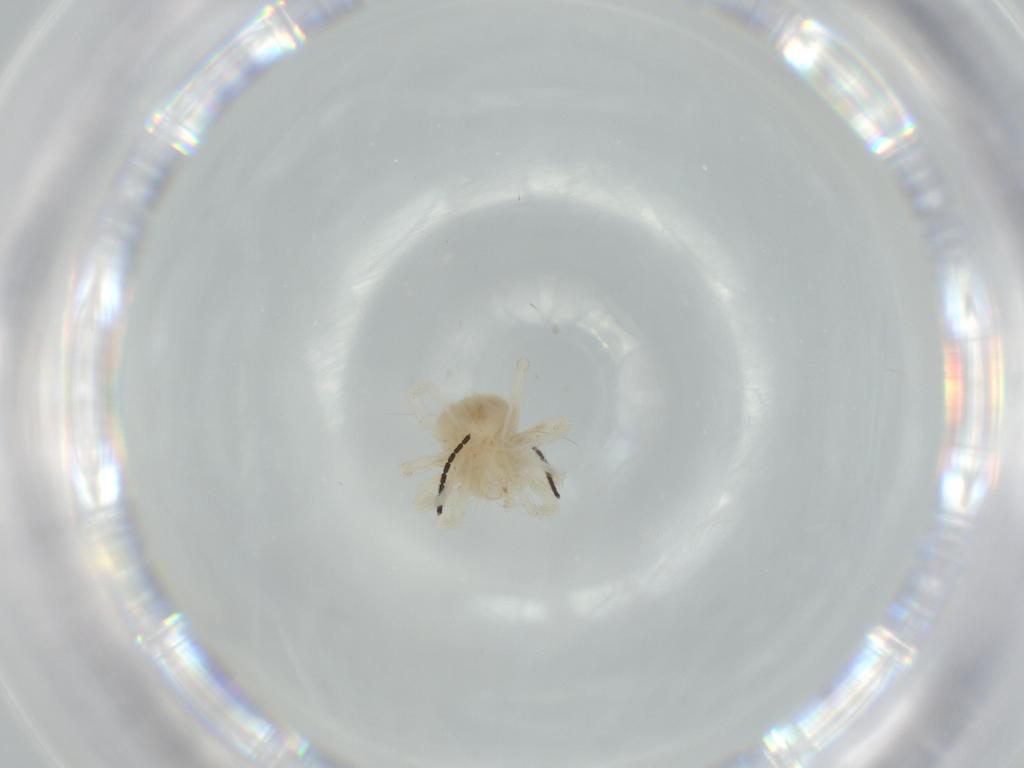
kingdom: Animalia
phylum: Arthropoda
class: Arachnida
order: Trombidiformes
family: Anystidae
